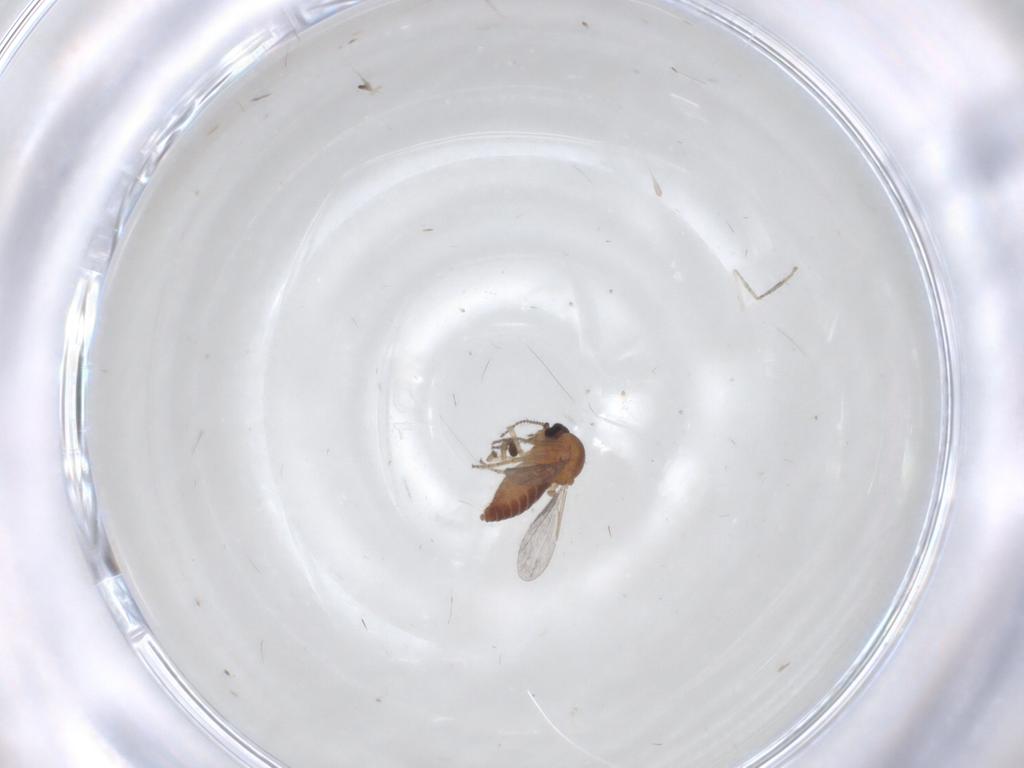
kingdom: Animalia
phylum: Arthropoda
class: Insecta
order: Diptera
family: Ceratopogonidae
